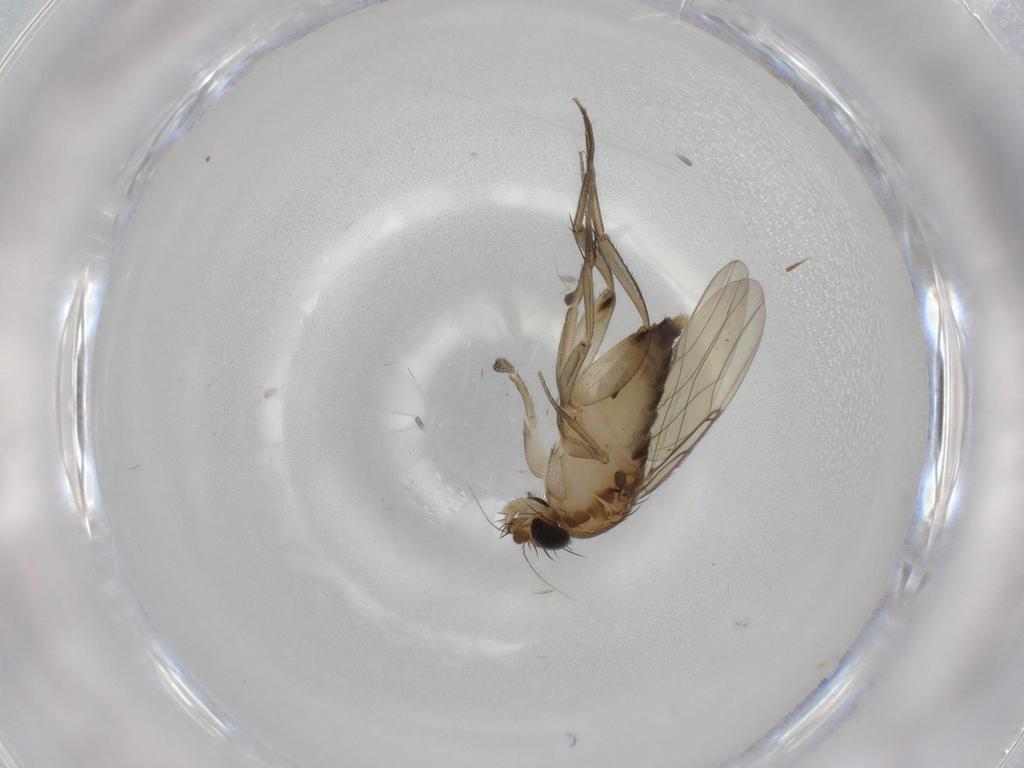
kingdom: Animalia
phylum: Arthropoda
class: Insecta
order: Diptera
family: Phoridae
